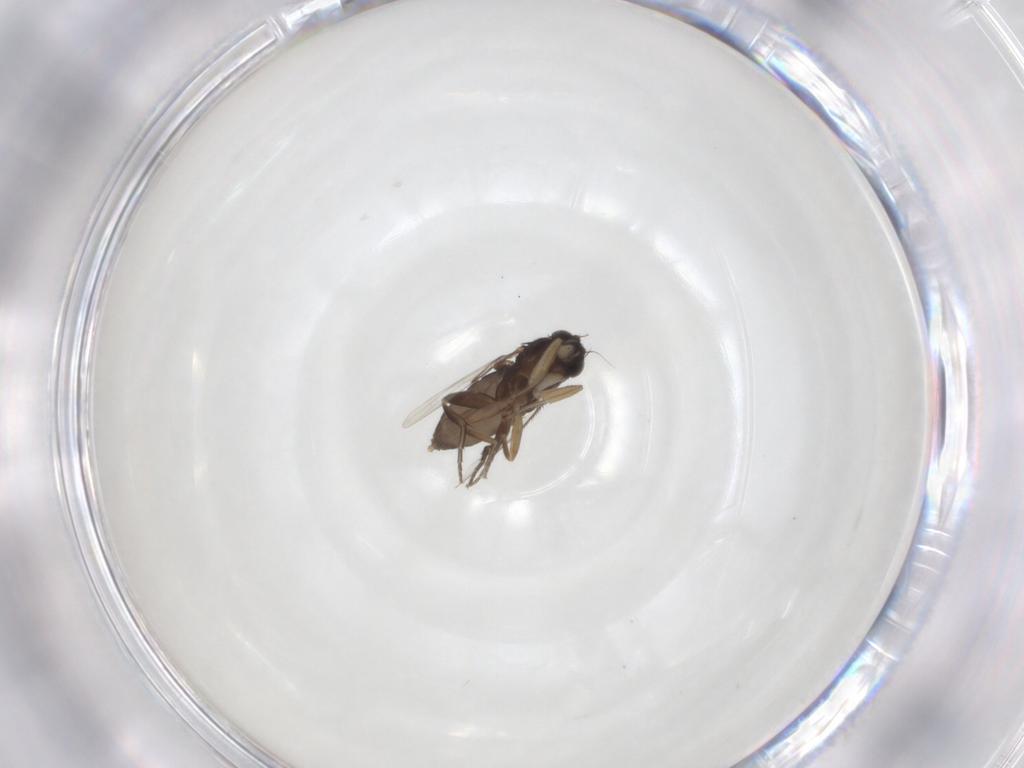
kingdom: Animalia
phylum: Arthropoda
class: Insecta
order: Diptera
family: Phoridae
